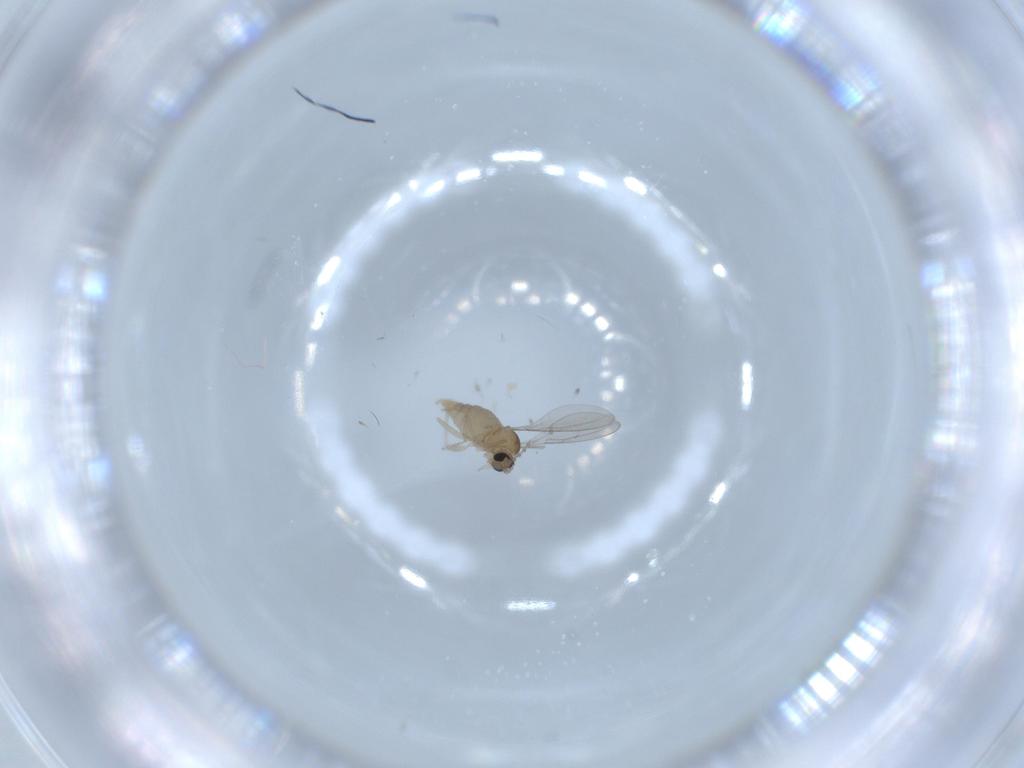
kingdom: Animalia
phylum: Arthropoda
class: Insecta
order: Diptera
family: Cecidomyiidae
